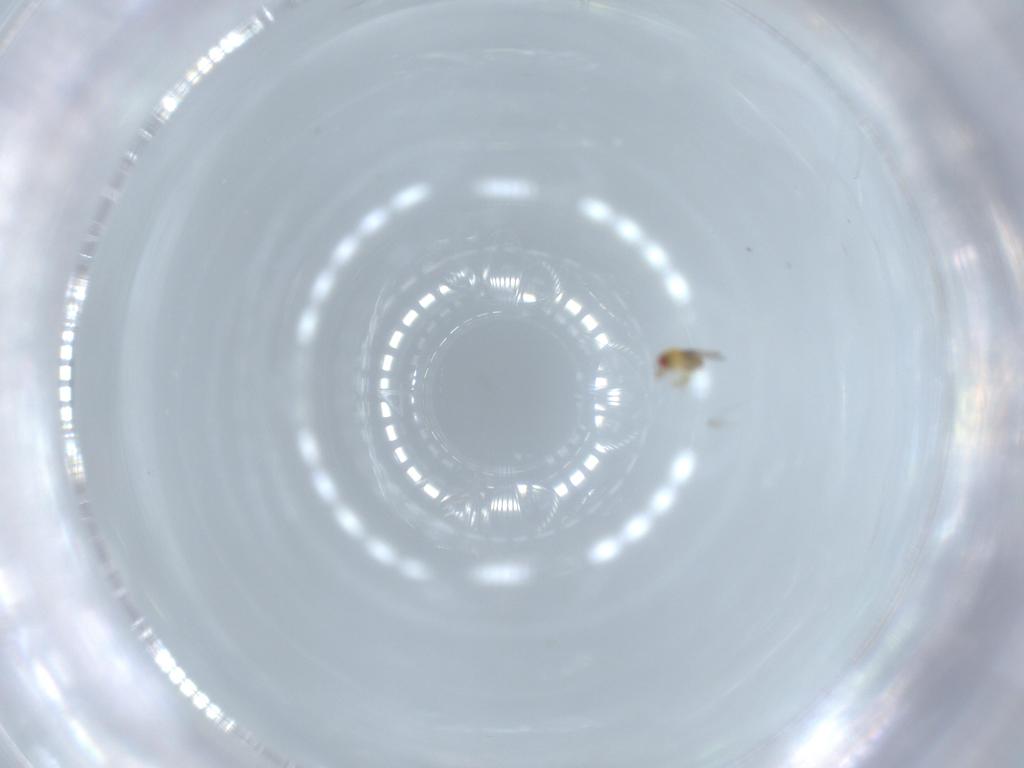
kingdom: Animalia
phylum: Arthropoda
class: Insecta
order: Hymenoptera
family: Trichogrammatidae
